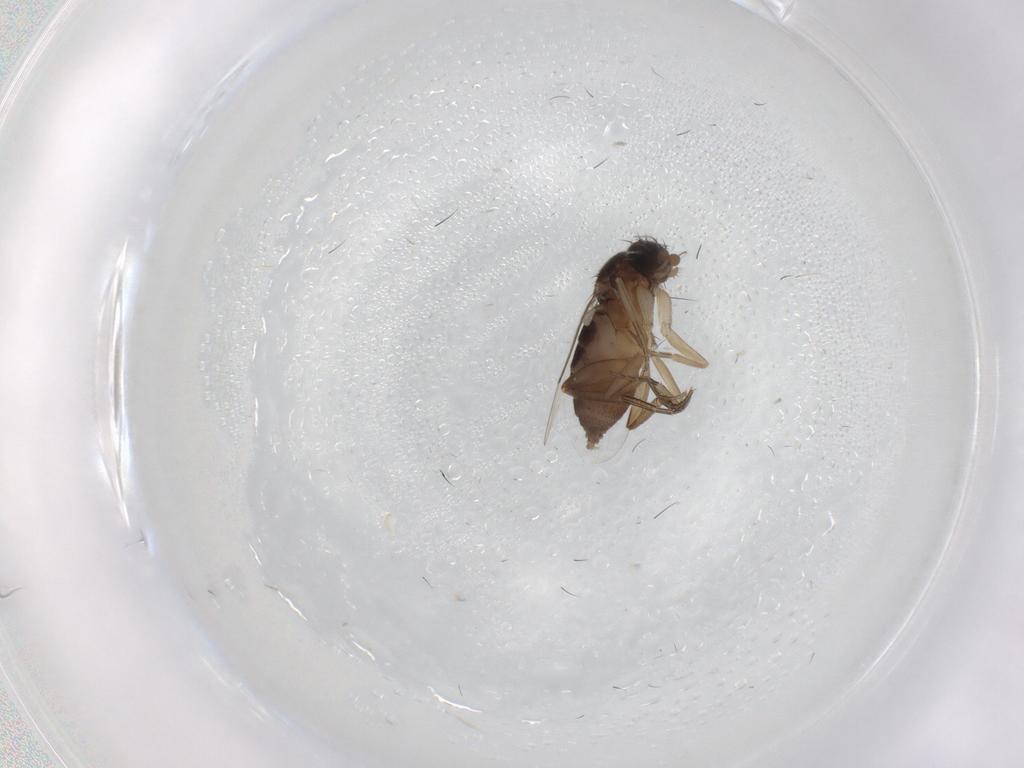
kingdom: Animalia
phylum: Arthropoda
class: Insecta
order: Diptera
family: Phoridae
